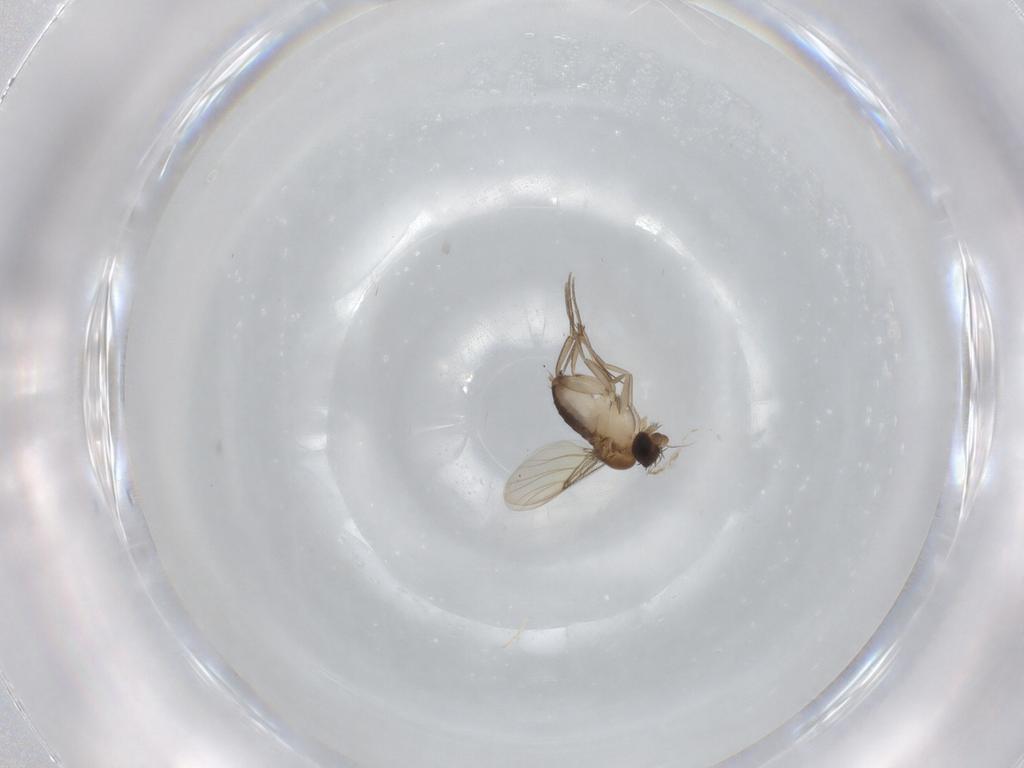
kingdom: Animalia
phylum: Arthropoda
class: Insecta
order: Diptera
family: Phoridae
